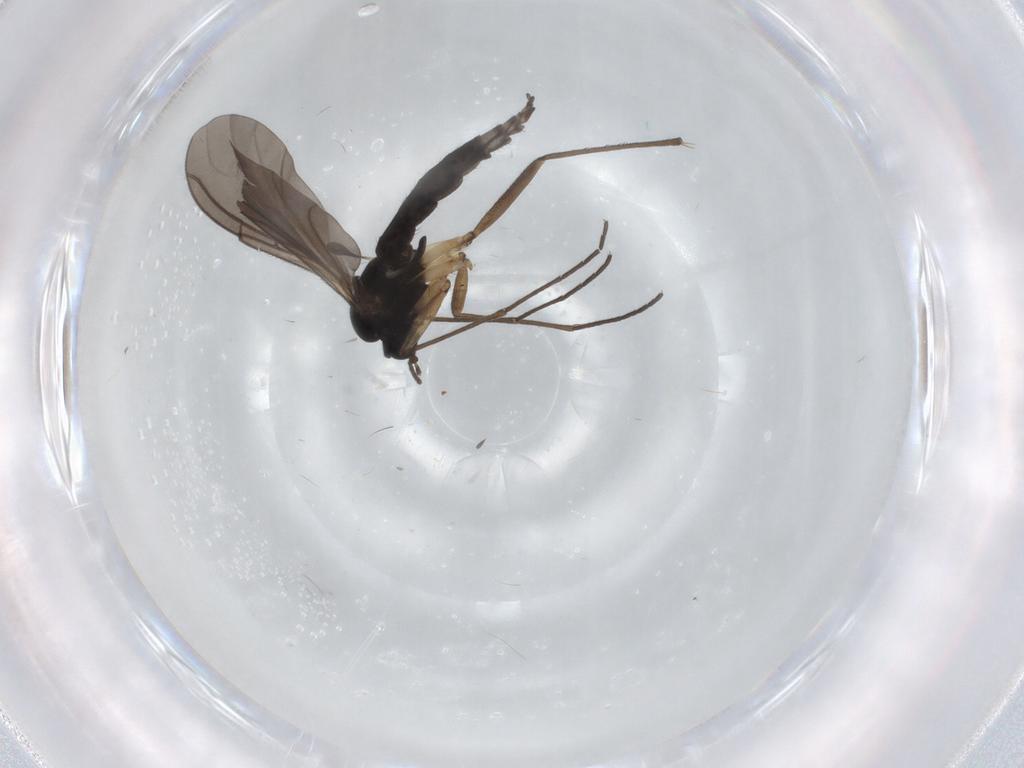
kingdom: Animalia
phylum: Arthropoda
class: Insecta
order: Diptera
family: Sciaridae
